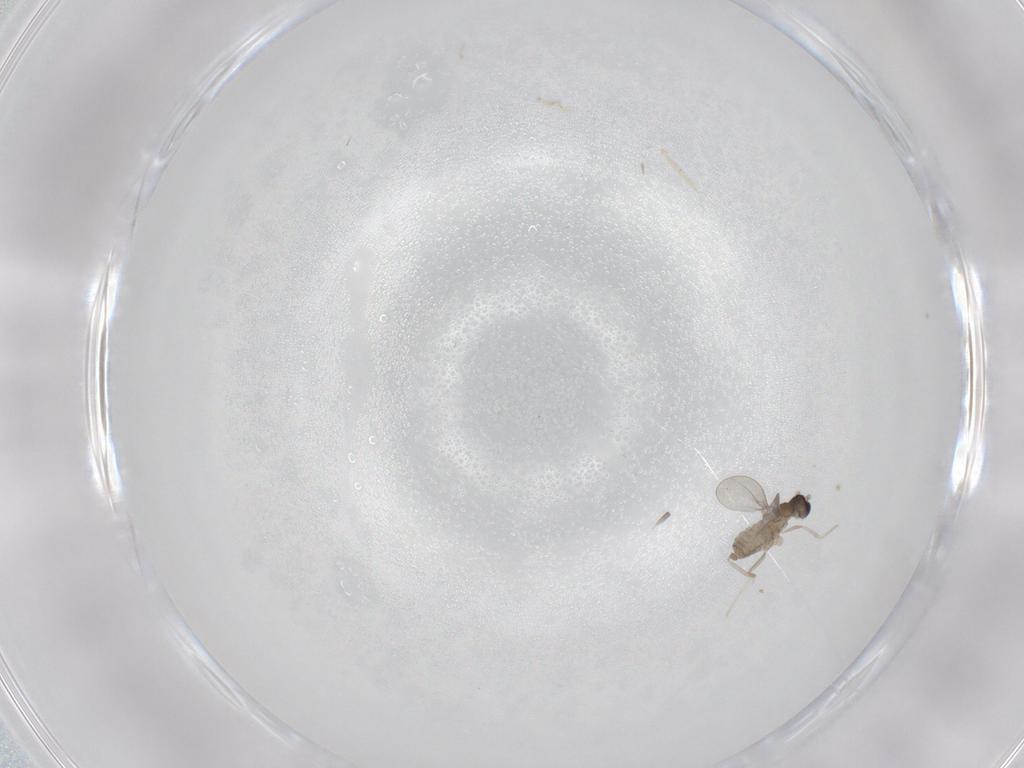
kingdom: Animalia
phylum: Arthropoda
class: Insecta
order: Diptera
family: Cecidomyiidae
